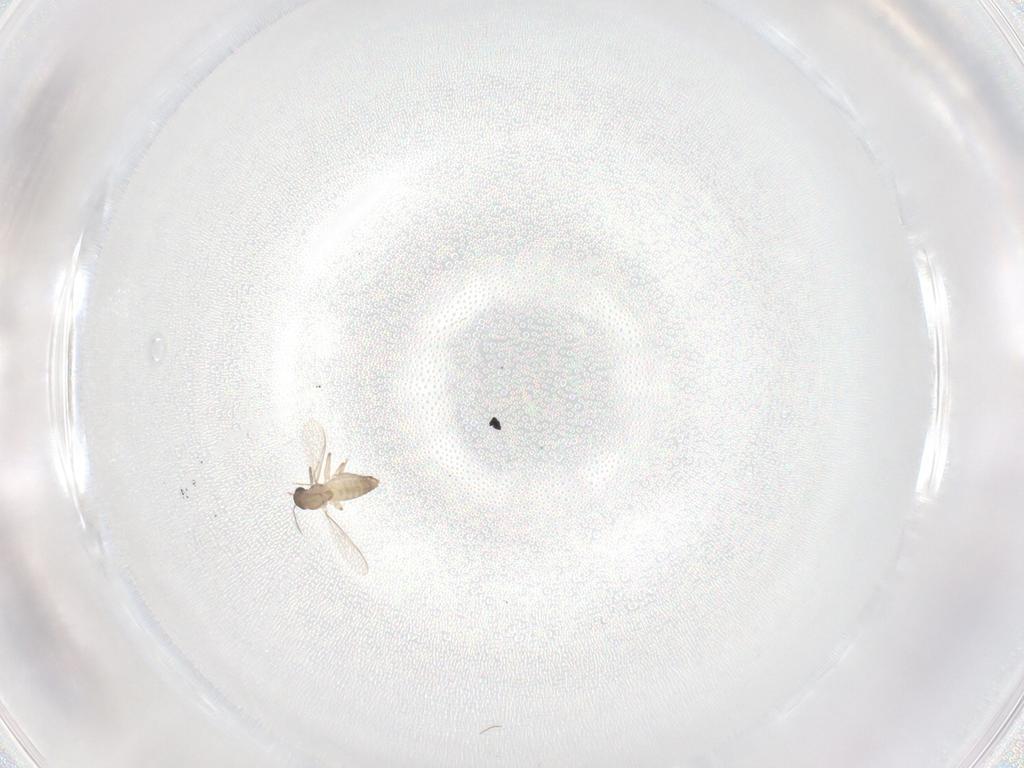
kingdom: Animalia
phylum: Arthropoda
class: Insecta
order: Diptera
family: Chironomidae
